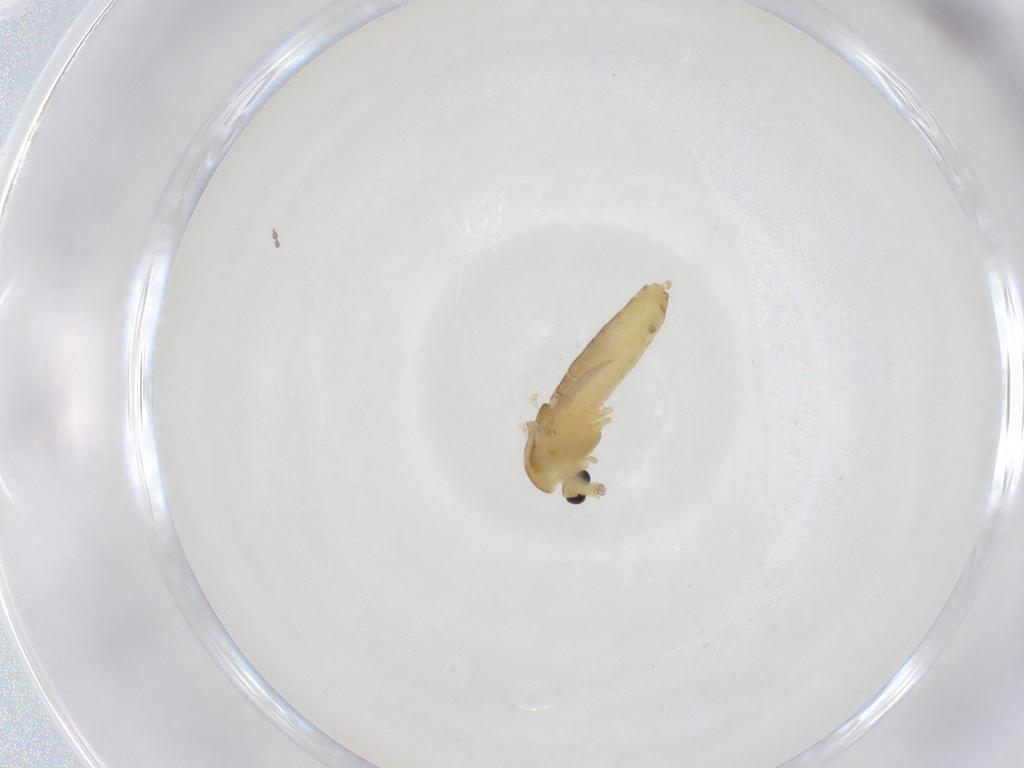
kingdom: Animalia
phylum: Arthropoda
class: Insecta
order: Diptera
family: Chironomidae
